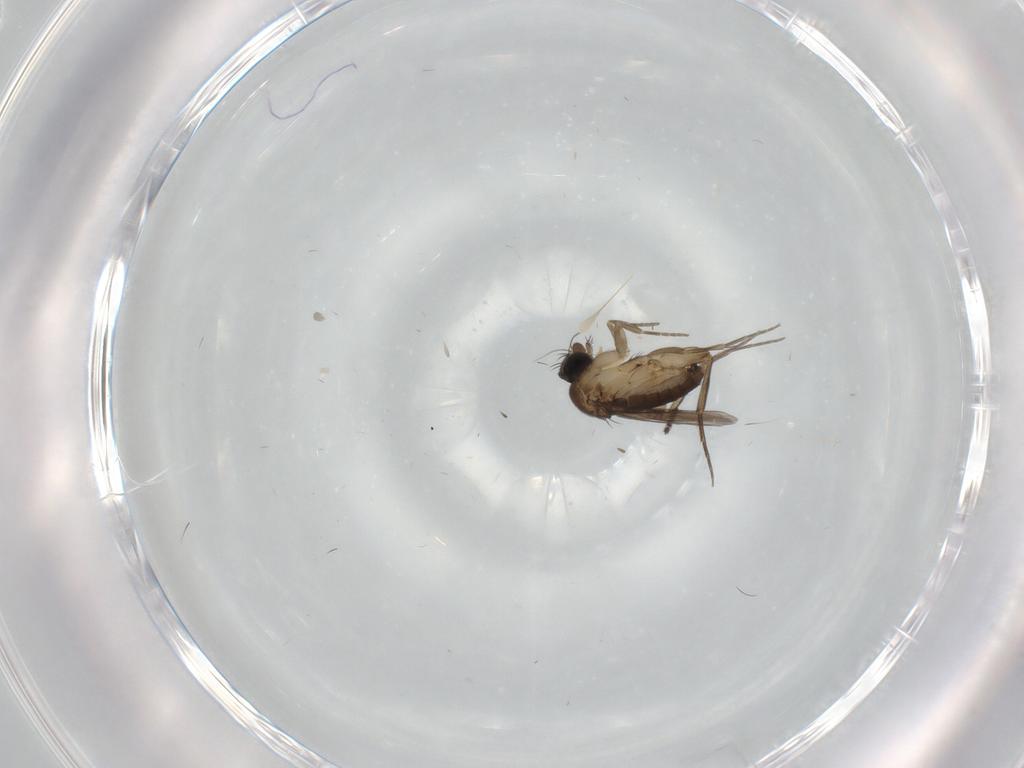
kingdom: Animalia
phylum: Arthropoda
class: Insecta
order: Diptera
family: Phoridae
